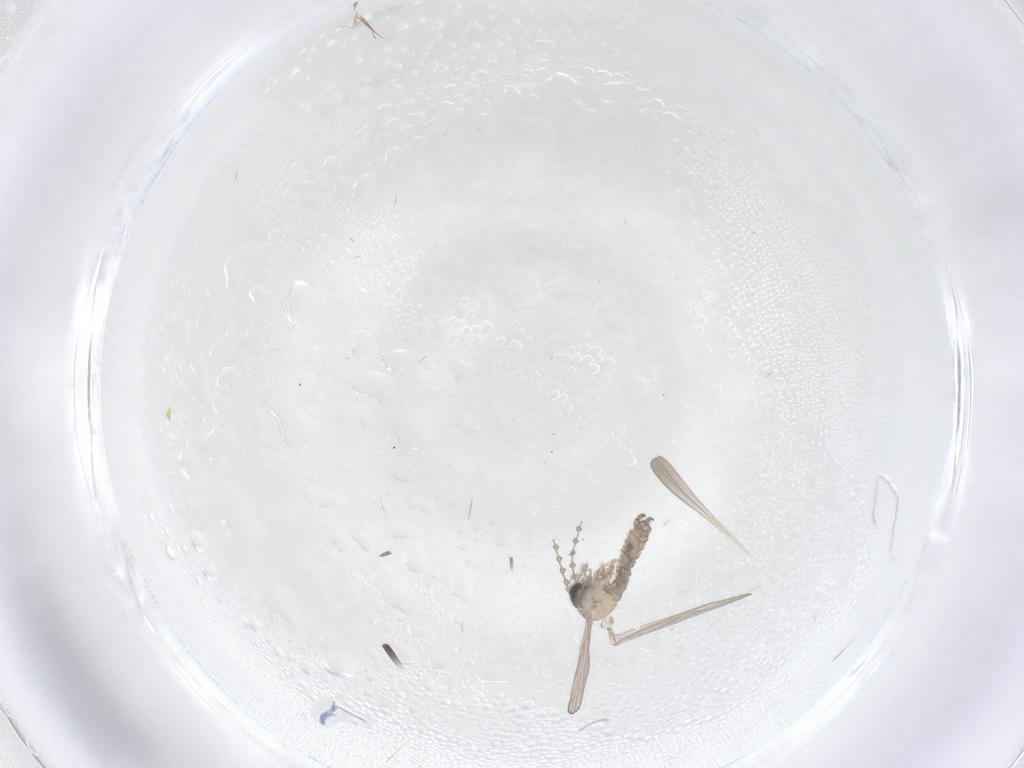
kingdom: Animalia
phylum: Arthropoda
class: Insecta
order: Diptera
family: Psychodidae
